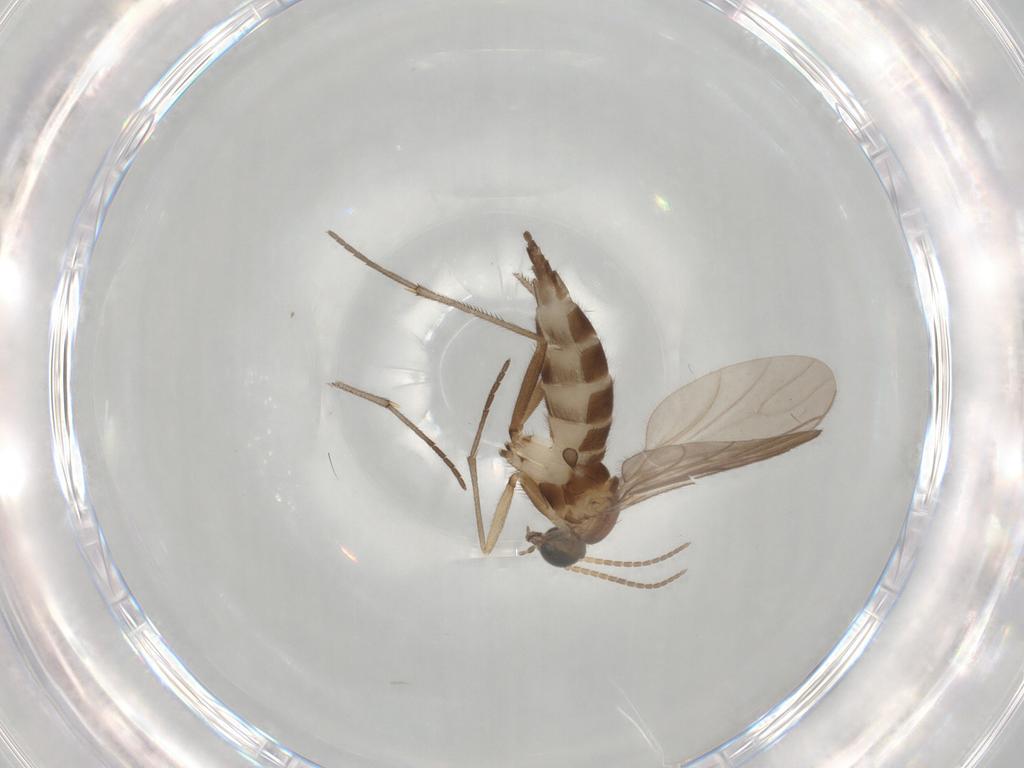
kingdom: Animalia
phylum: Arthropoda
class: Insecta
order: Diptera
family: Sciaridae
